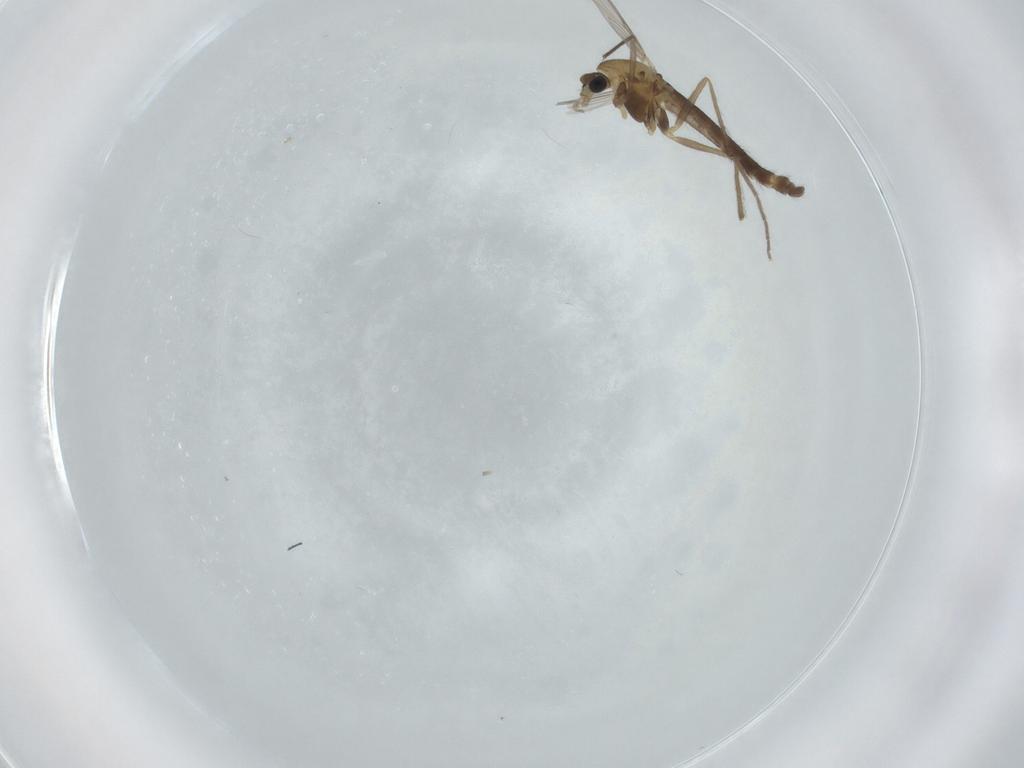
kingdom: Animalia
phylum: Arthropoda
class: Insecta
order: Diptera
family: Chironomidae
